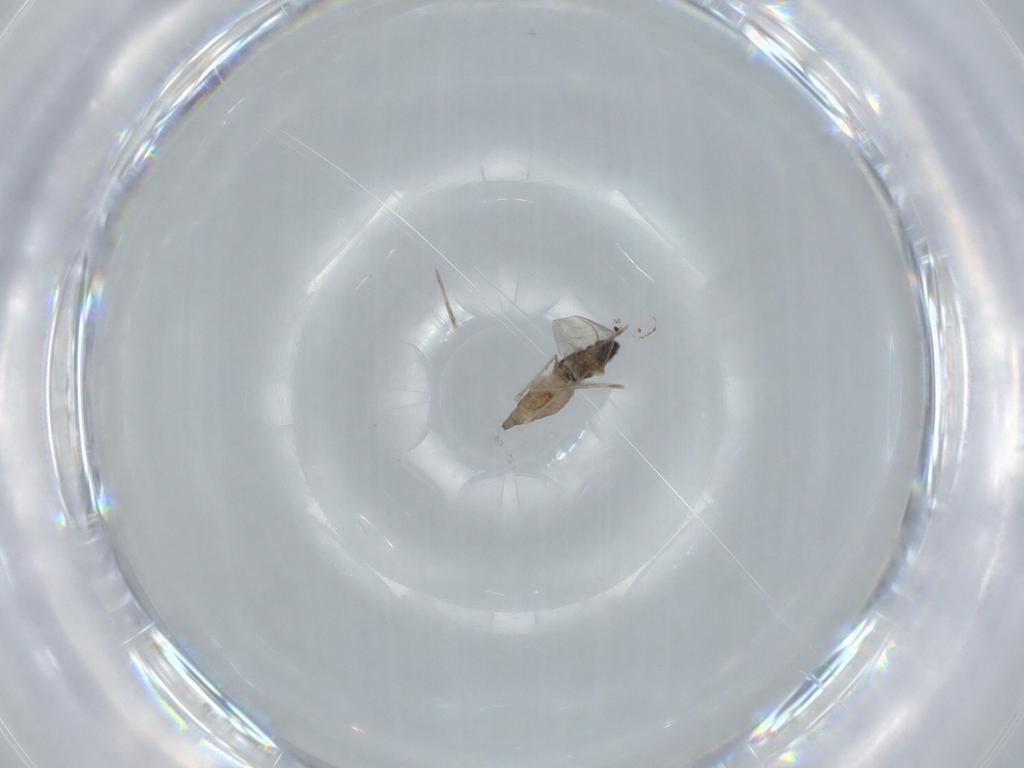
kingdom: Animalia
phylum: Arthropoda
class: Insecta
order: Diptera
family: Cecidomyiidae
